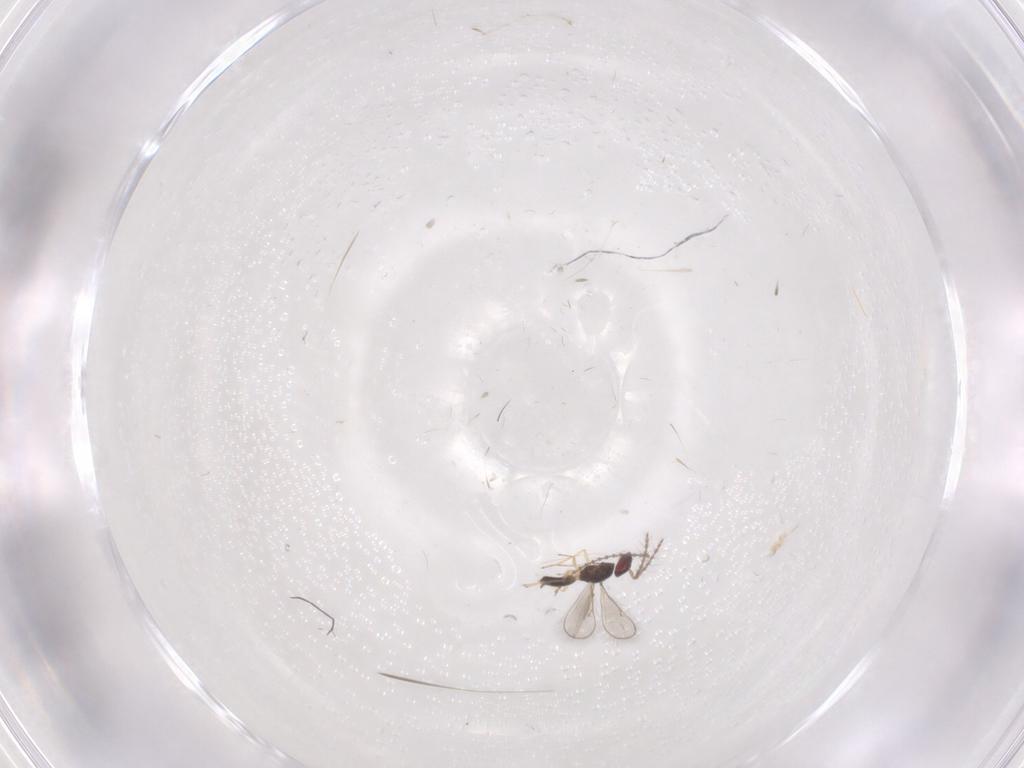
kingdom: Animalia
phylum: Arthropoda
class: Insecta
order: Hymenoptera
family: Eulophidae
